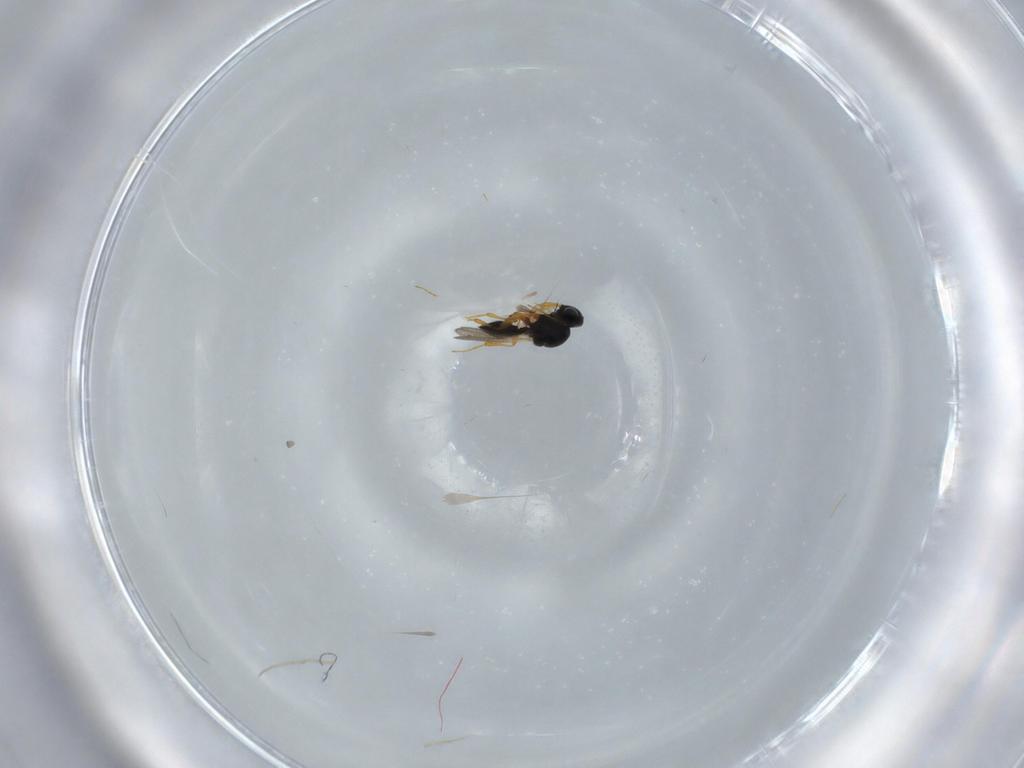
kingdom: Animalia
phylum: Arthropoda
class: Insecta
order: Hymenoptera
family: Platygastridae
